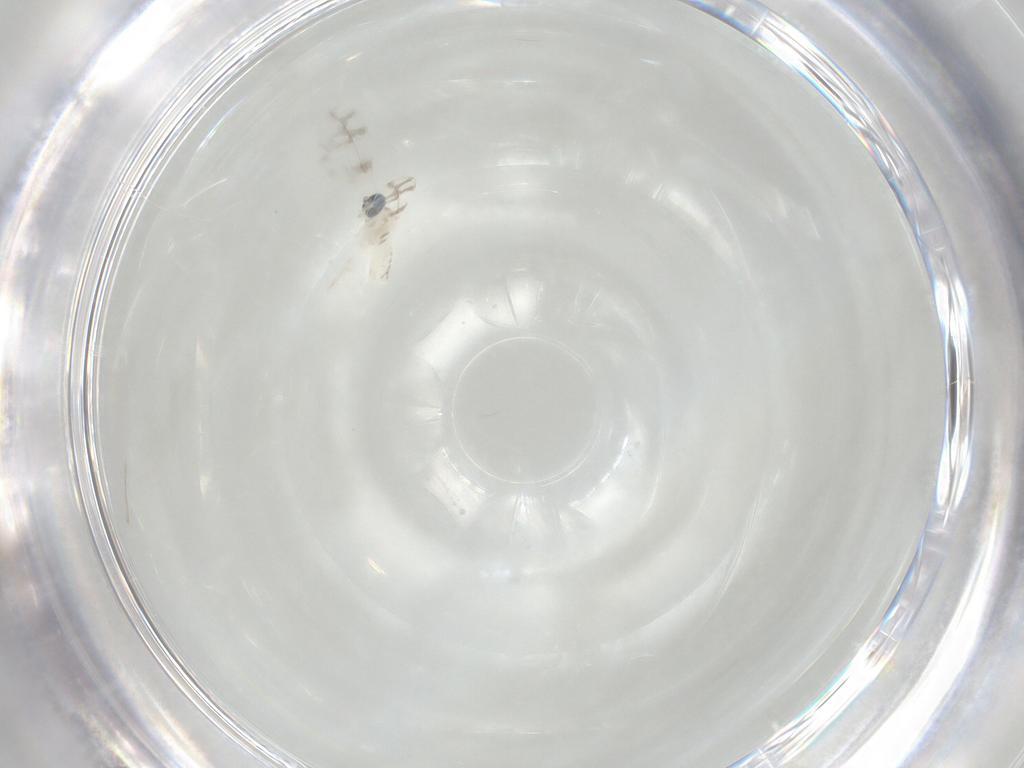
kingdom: Animalia
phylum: Arthropoda
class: Insecta
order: Diptera
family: Cecidomyiidae
